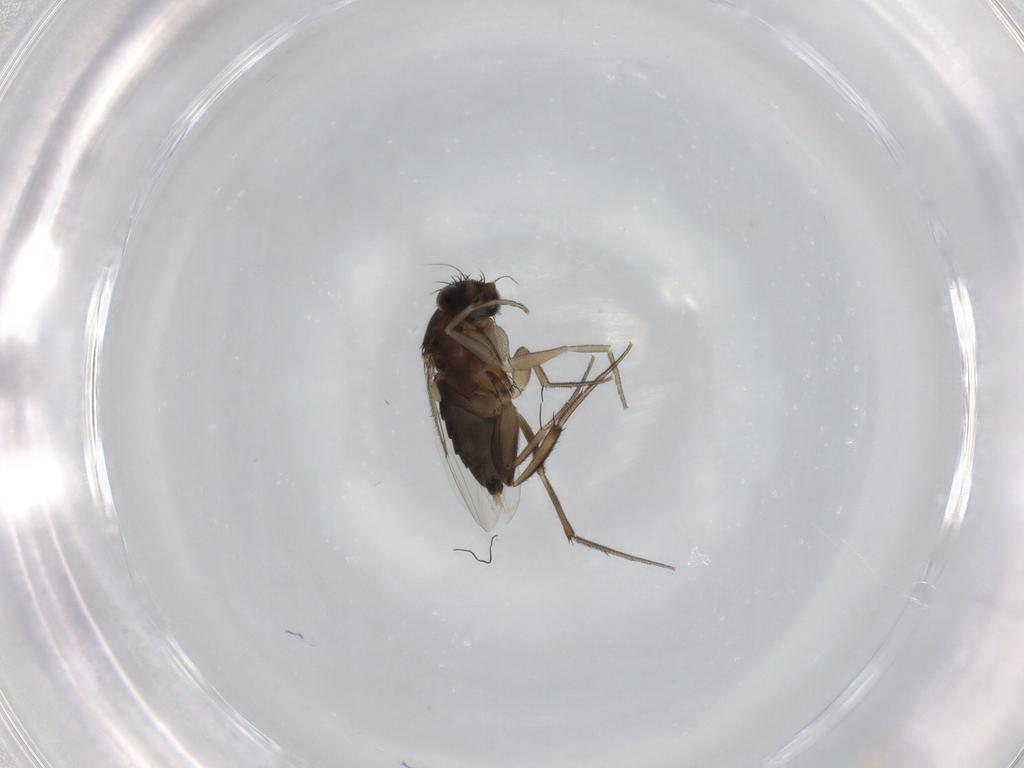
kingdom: Animalia
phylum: Arthropoda
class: Insecta
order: Diptera
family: Phoridae
